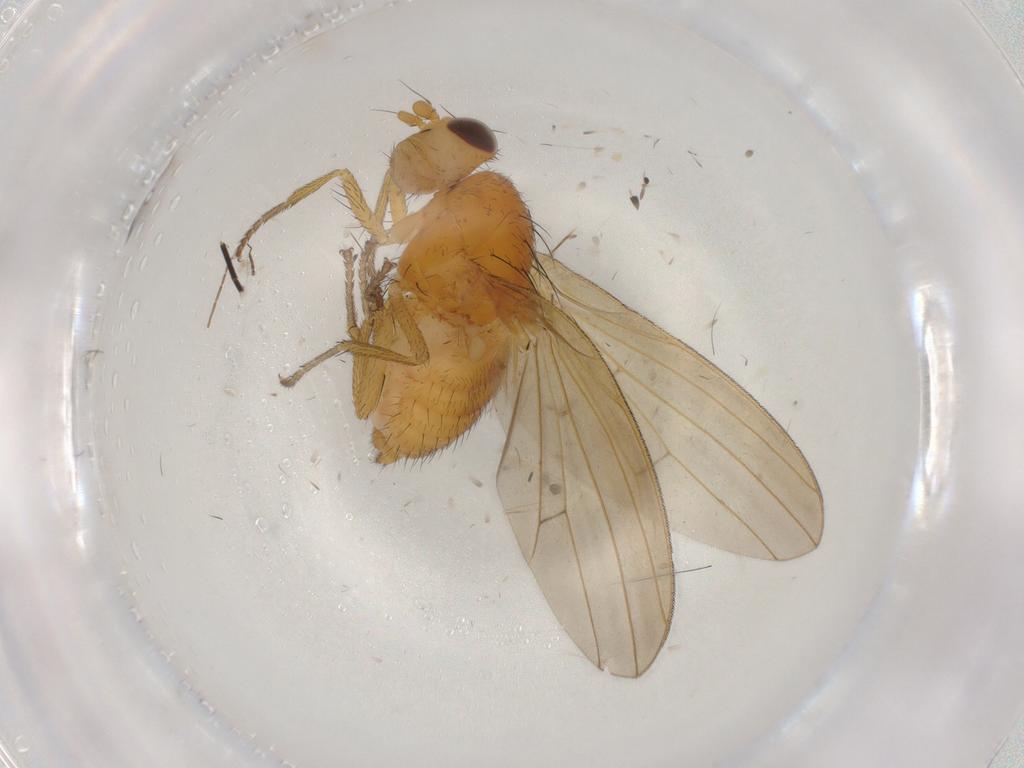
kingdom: Animalia
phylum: Arthropoda
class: Insecta
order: Diptera
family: Mycetophilidae
